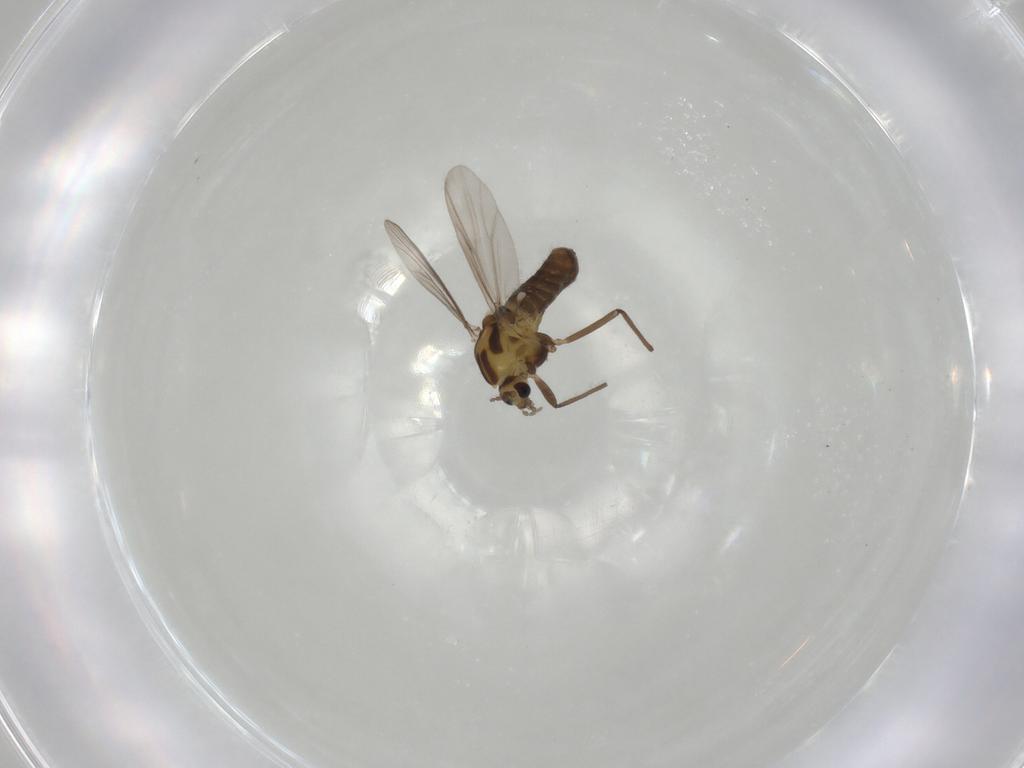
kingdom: Animalia
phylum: Arthropoda
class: Insecta
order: Diptera
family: Chironomidae
